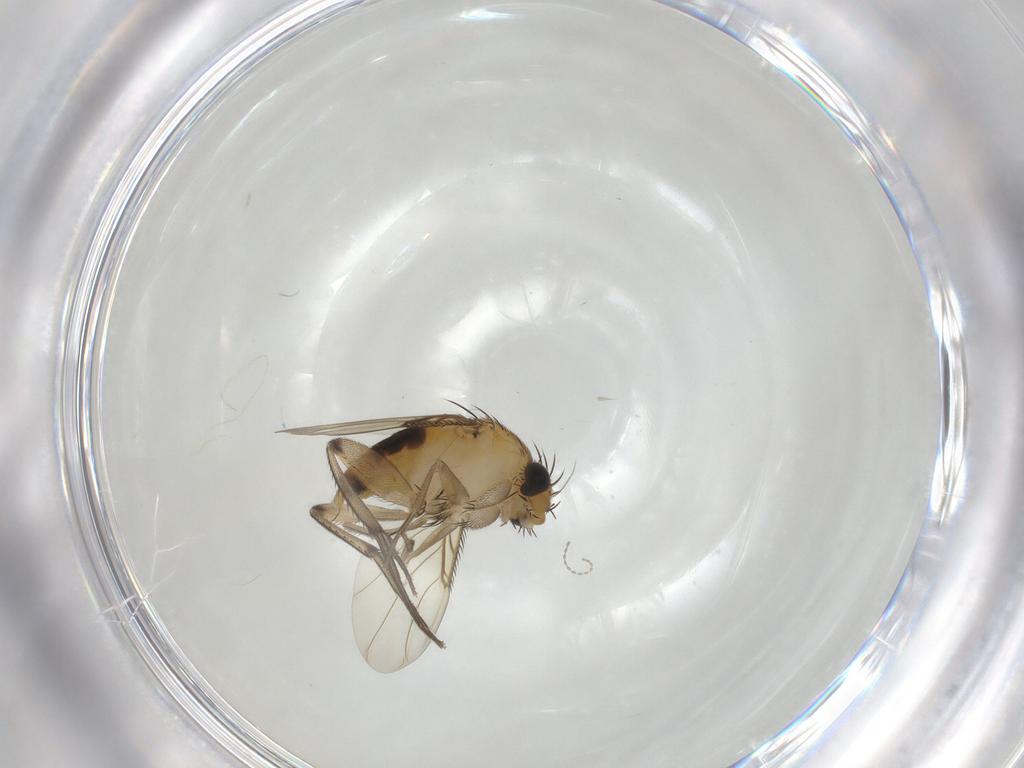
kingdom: Animalia
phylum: Arthropoda
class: Insecta
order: Diptera
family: Phoridae
